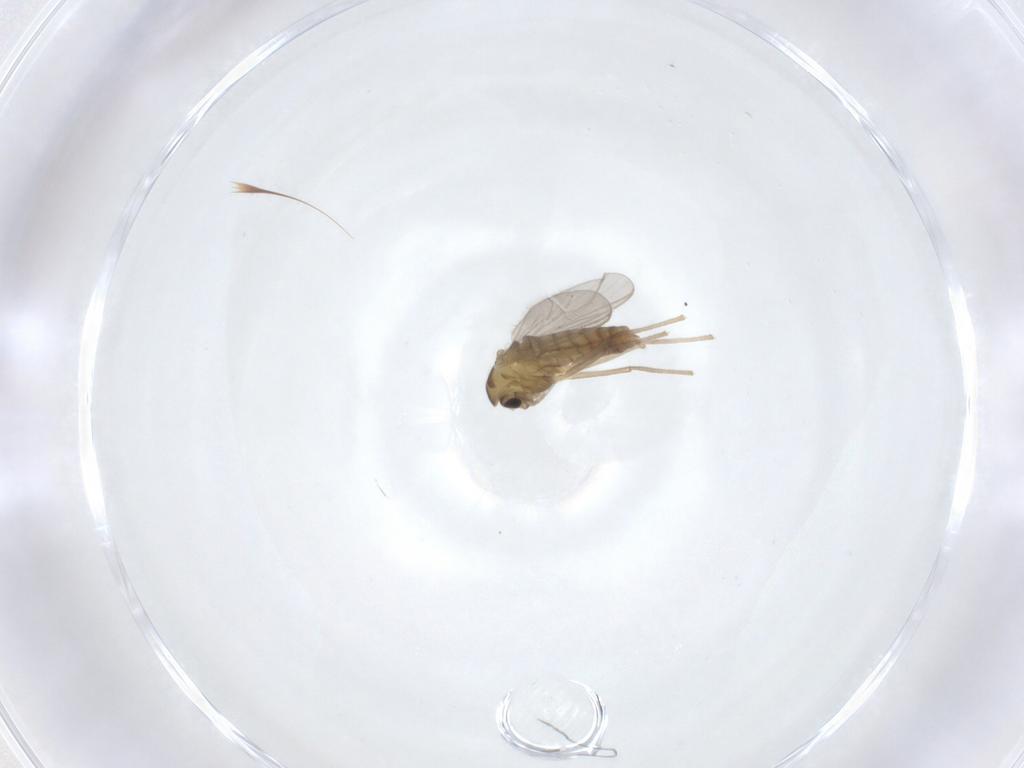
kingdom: Animalia
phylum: Arthropoda
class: Insecta
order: Diptera
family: Chironomidae
